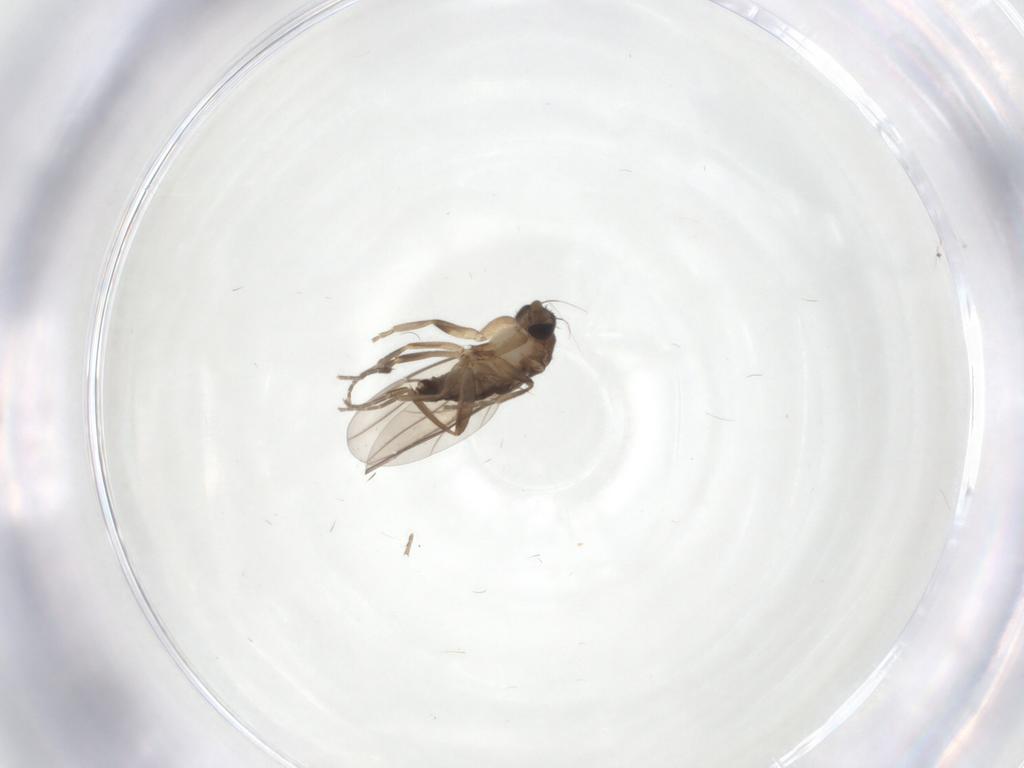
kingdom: Animalia
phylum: Arthropoda
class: Insecta
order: Diptera
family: Phoridae
